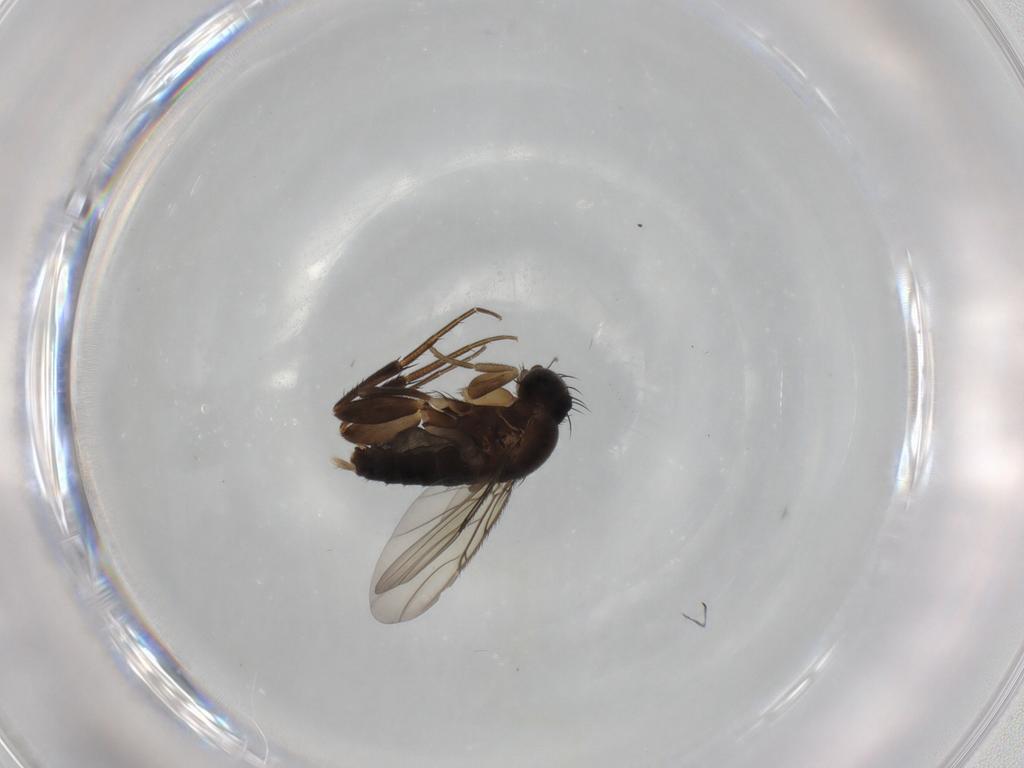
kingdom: Animalia
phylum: Arthropoda
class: Insecta
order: Diptera
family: Phoridae
